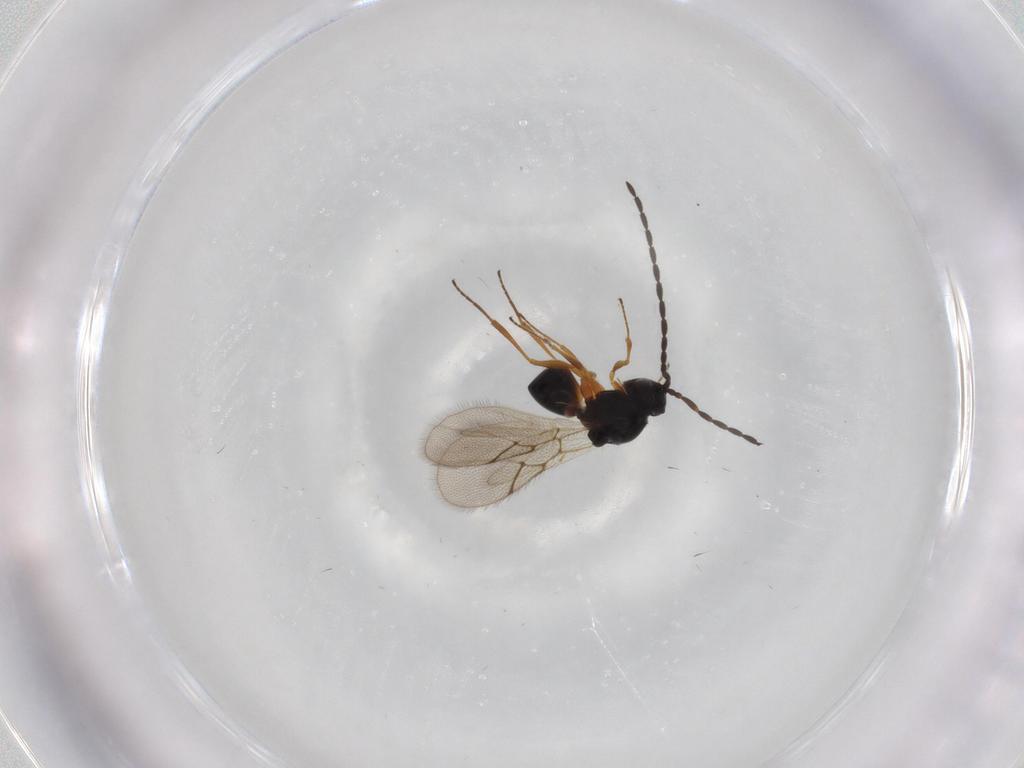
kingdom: Animalia
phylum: Arthropoda
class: Insecta
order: Hymenoptera
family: Figitidae
